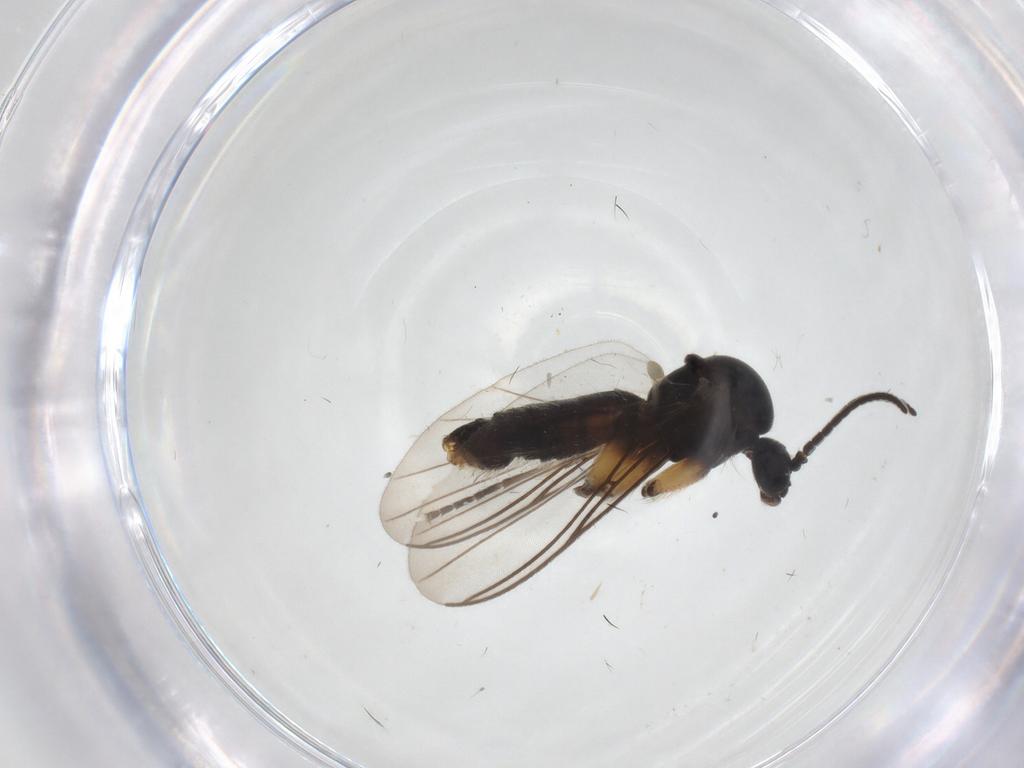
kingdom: Animalia
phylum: Arthropoda
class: Insecta
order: Diptera
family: Mycetophilidae
